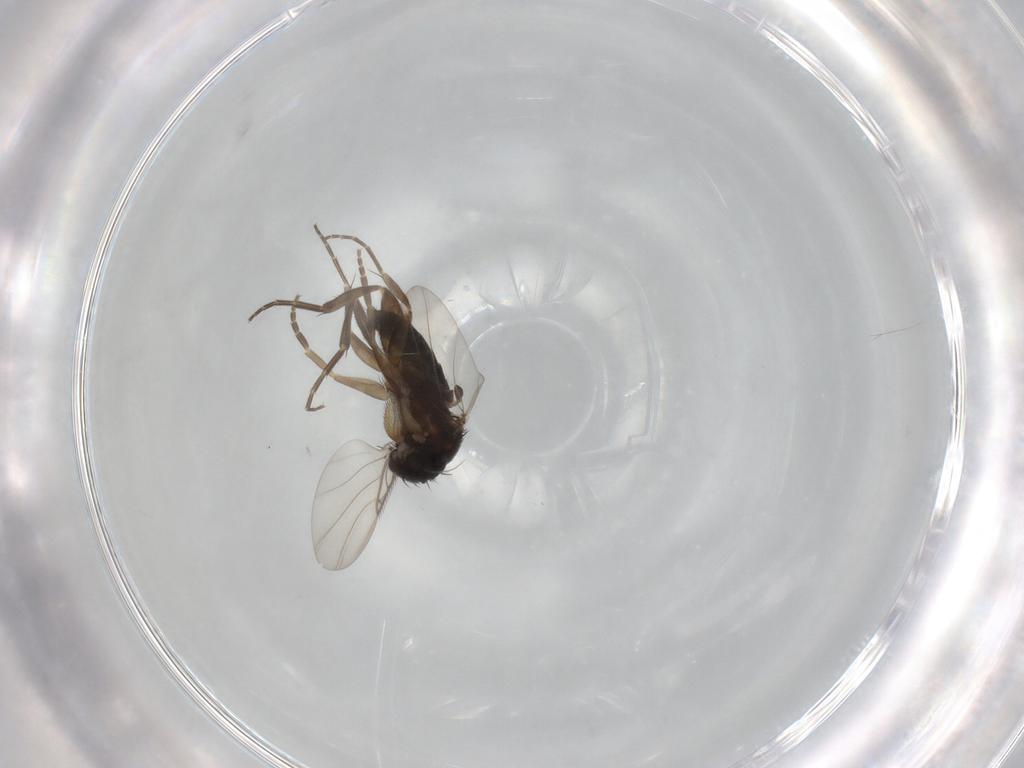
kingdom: Animalia
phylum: Arthropoda
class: Insecta
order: Diptera
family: Phoridae
